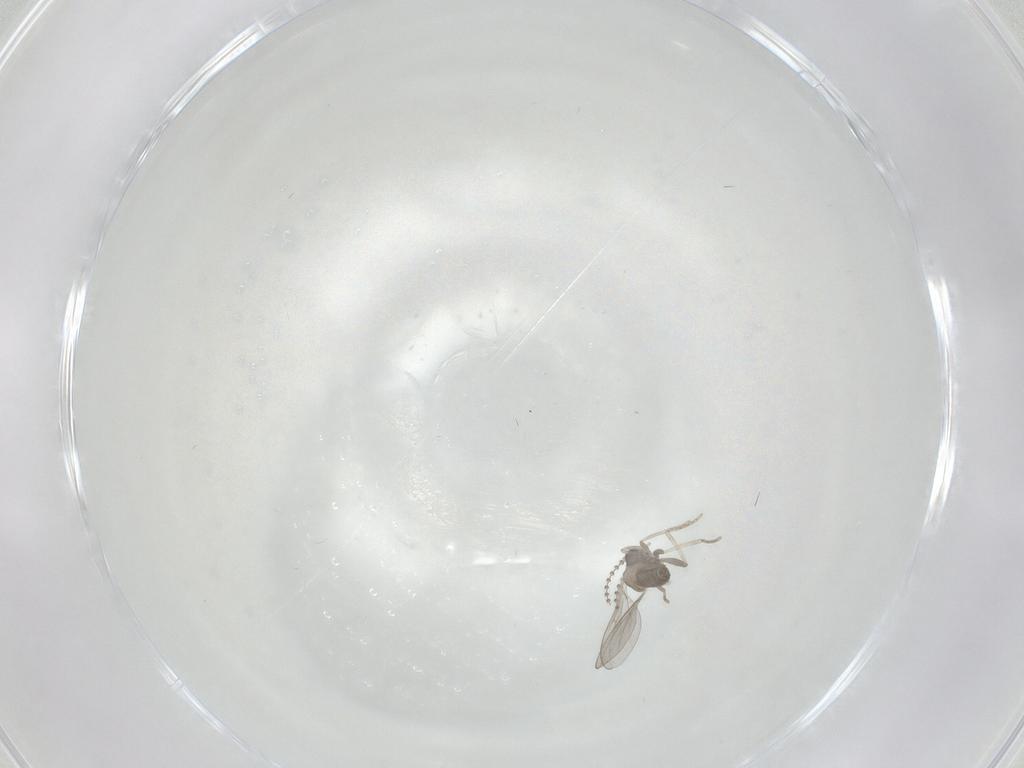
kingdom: Animalia
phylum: Arthropoda
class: Insecta
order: Diptera
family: Cecidomyiidae
